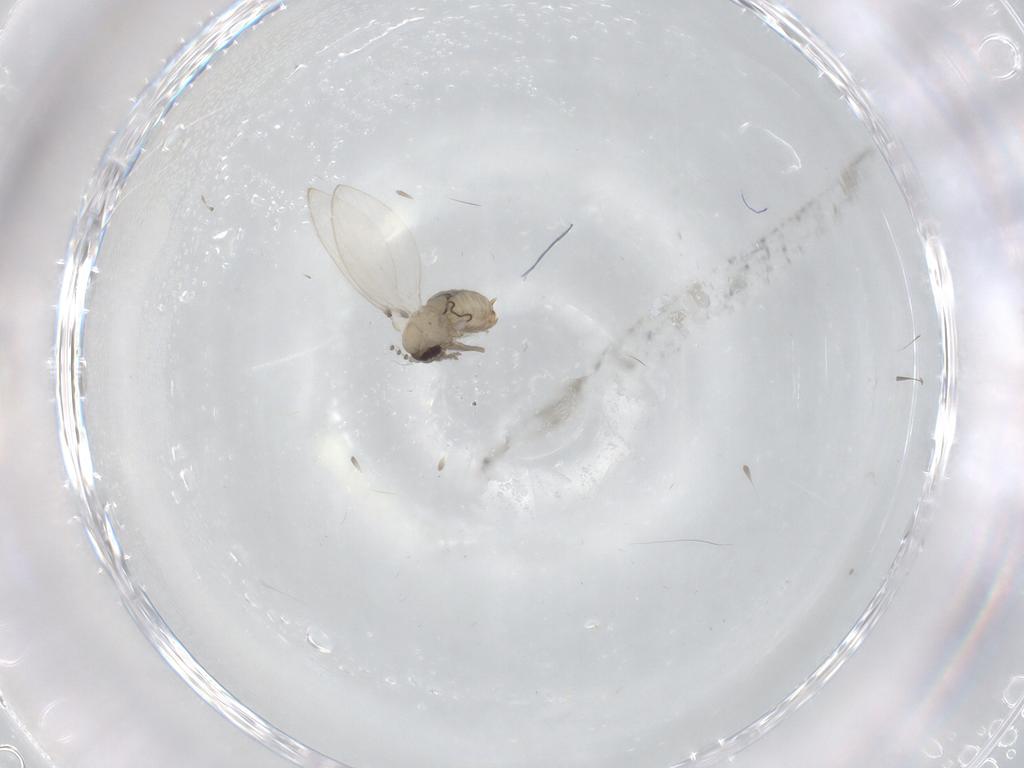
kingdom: Animalia
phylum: Arthropoda
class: Insecta
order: Diptera
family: Psychodidae
